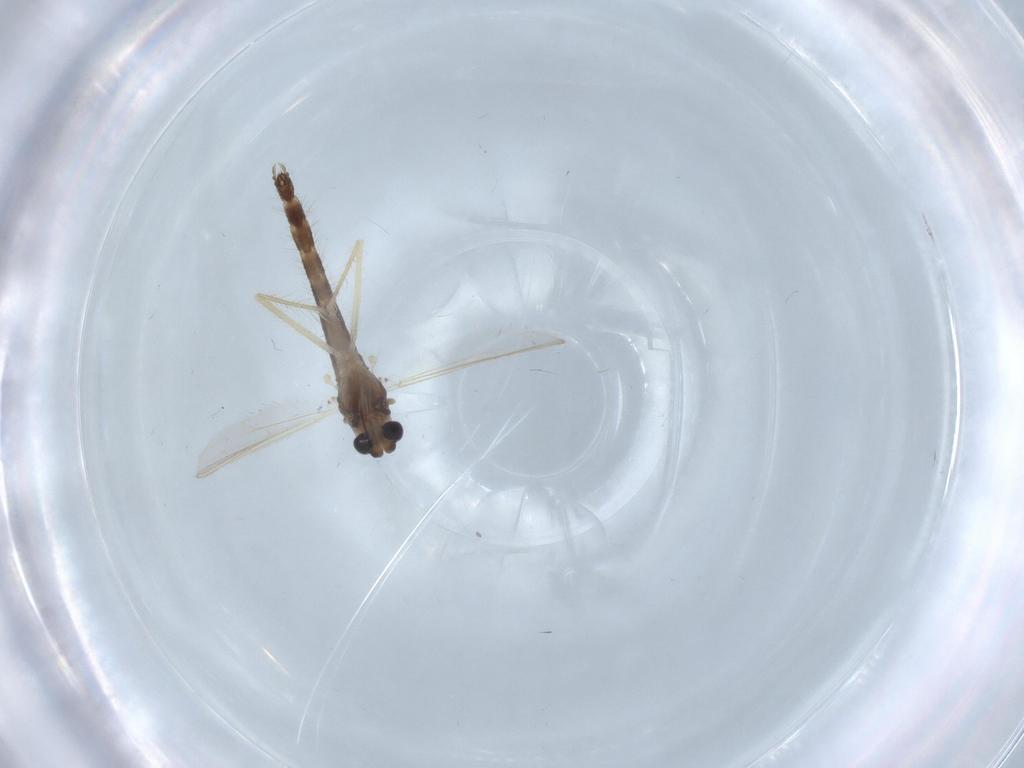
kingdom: Animalia
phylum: Arthropoda
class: Insecta
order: Diptera
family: Chironomidae
